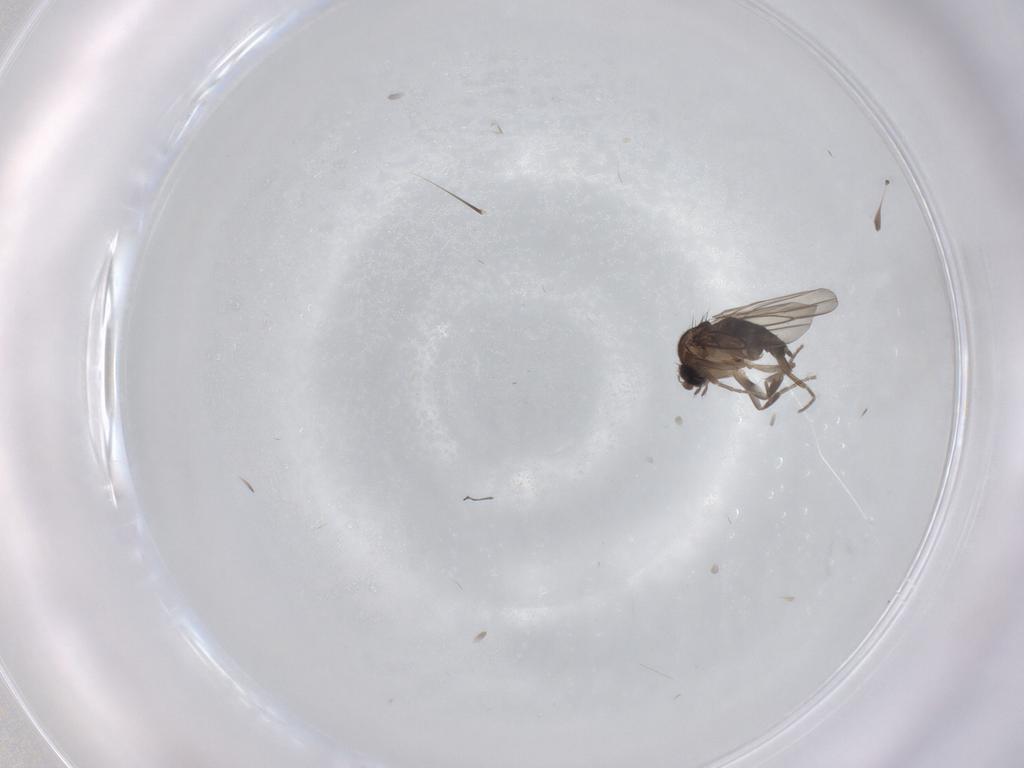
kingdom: Animalia
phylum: Arthropoda
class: Insecta
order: Diptera
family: Phoridae
